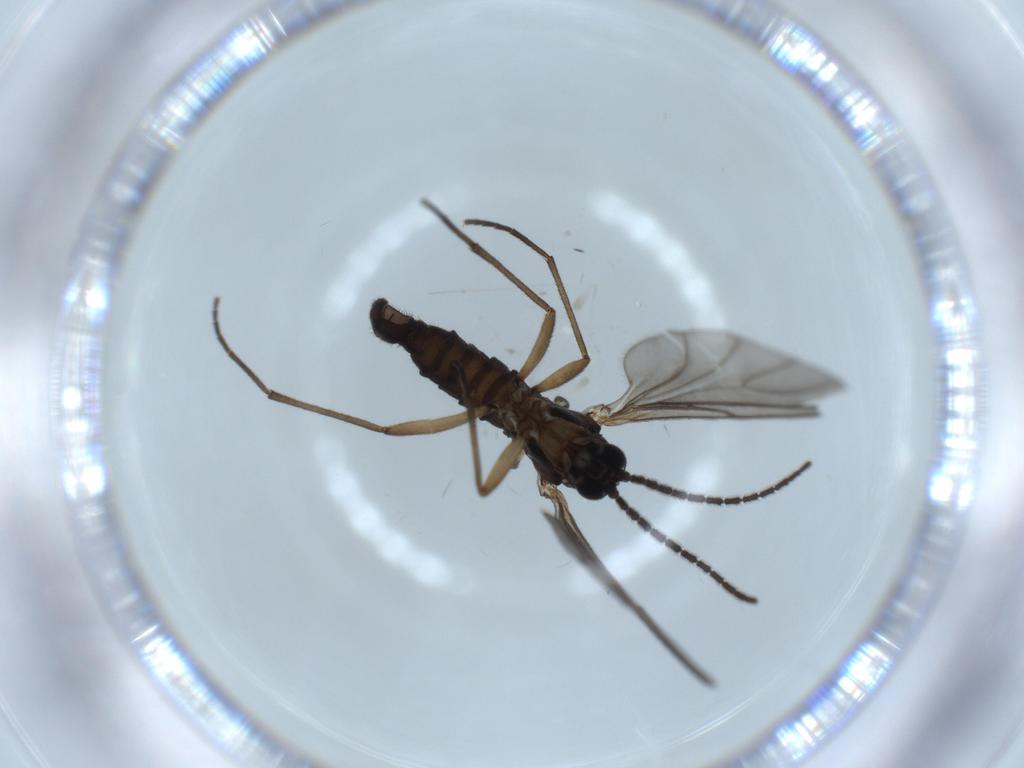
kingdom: Animalia
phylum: Arthropoda
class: Insecta
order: Diptera
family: Sciaridae
